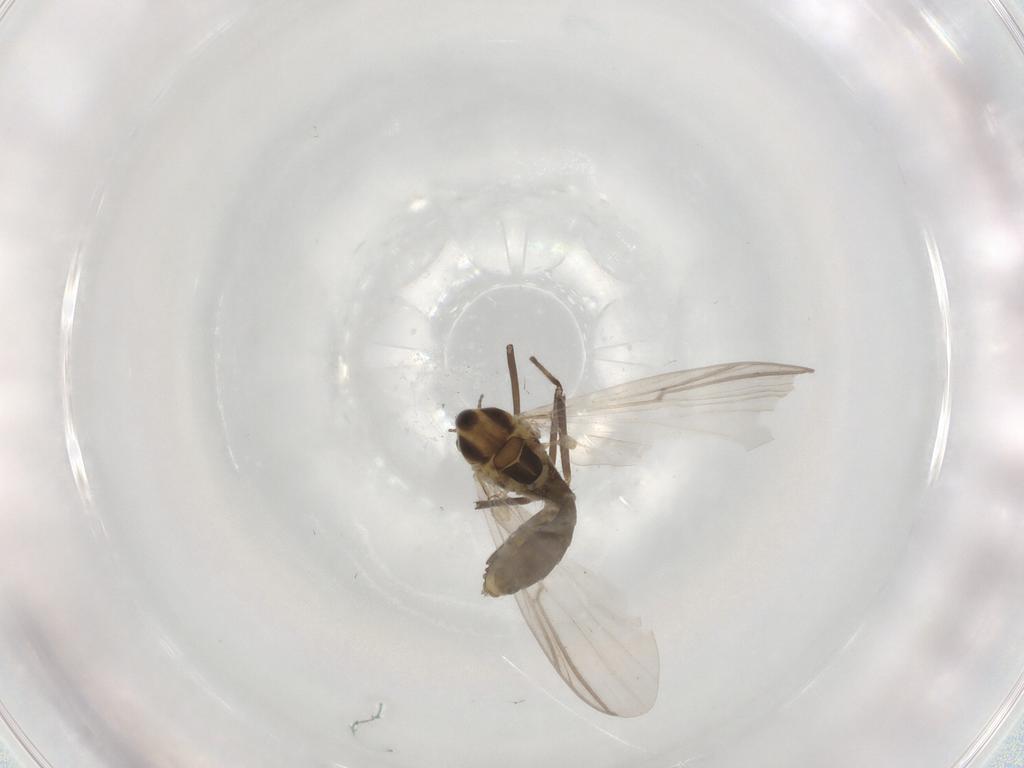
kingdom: Animalia
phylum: Arthropoda
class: Insecta
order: Diptera
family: Chironomidae
